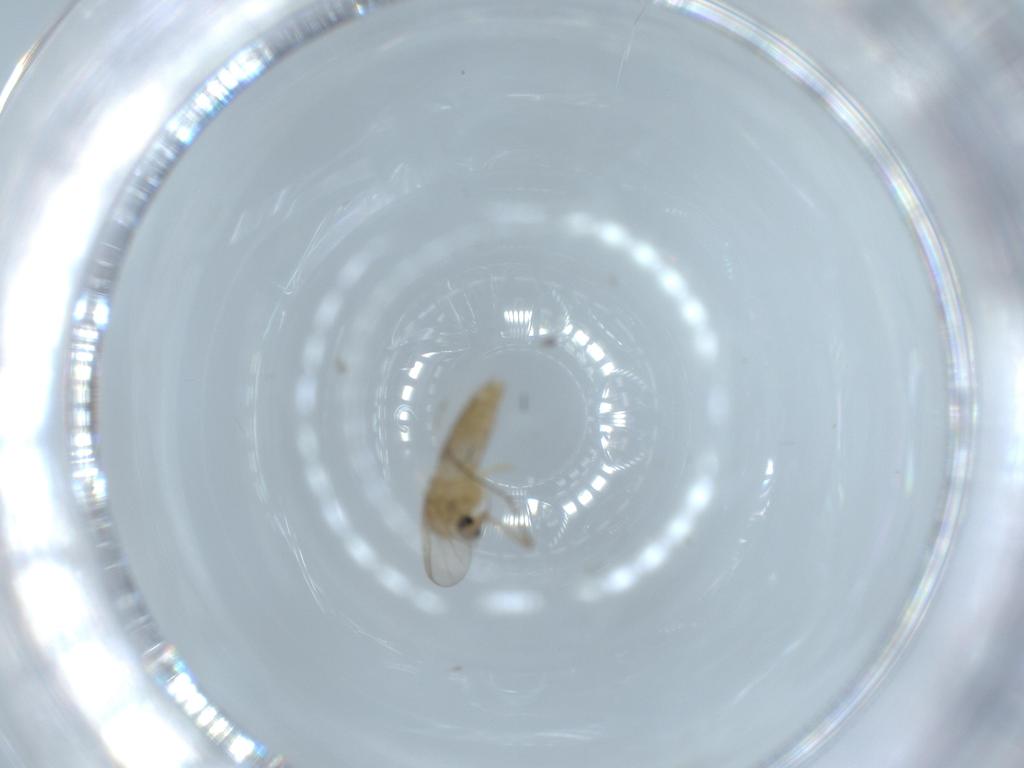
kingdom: Animalia
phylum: Arthropoda
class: Insecta
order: Diptera
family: Chironomidae
